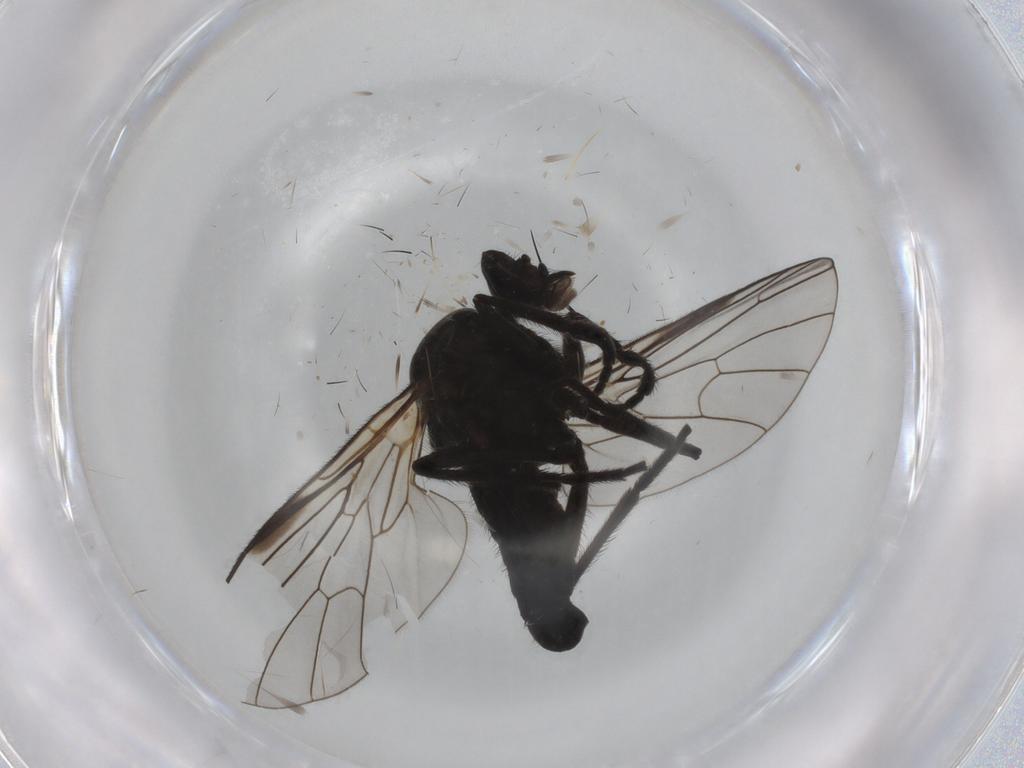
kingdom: Animalia
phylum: Arthropoda
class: Insecta
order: Diptera
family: Empididae
